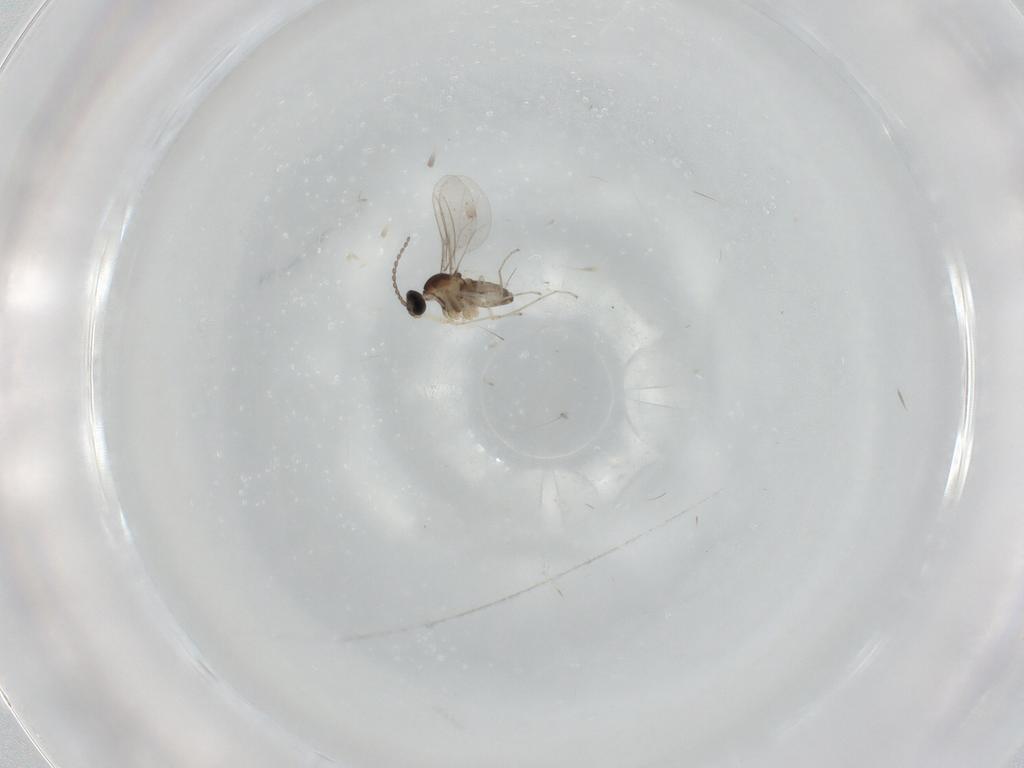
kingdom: Animalia
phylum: Arthropoda
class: Insecta
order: Diptera
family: Cecidomyiidae
